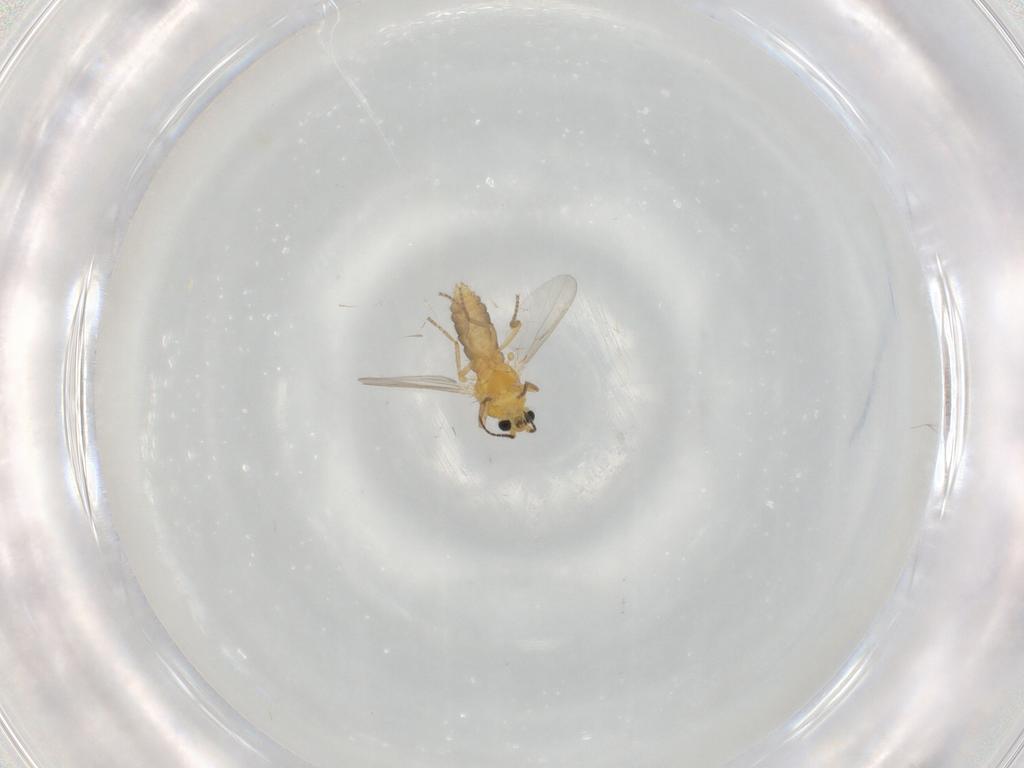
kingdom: Animalia
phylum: Arthropoda
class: Insecta
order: Diptera
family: Ceratopogonidae
